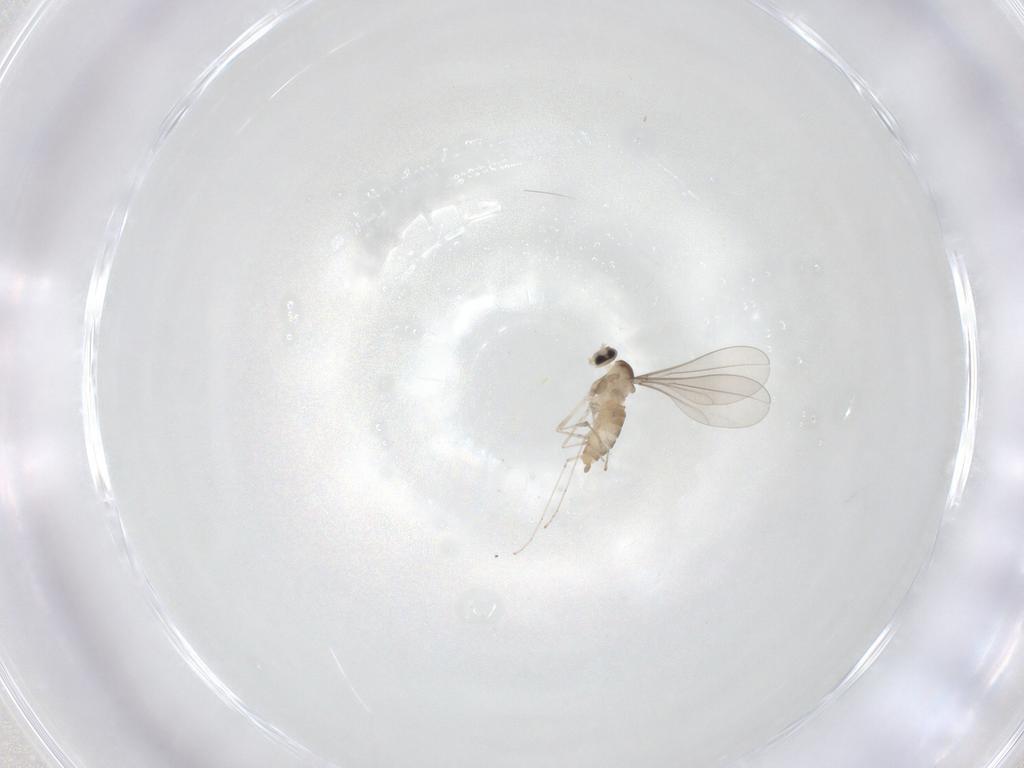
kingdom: Animalia
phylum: Arthropoda
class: Insecta
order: Diptera
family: Cecidomyiidae
